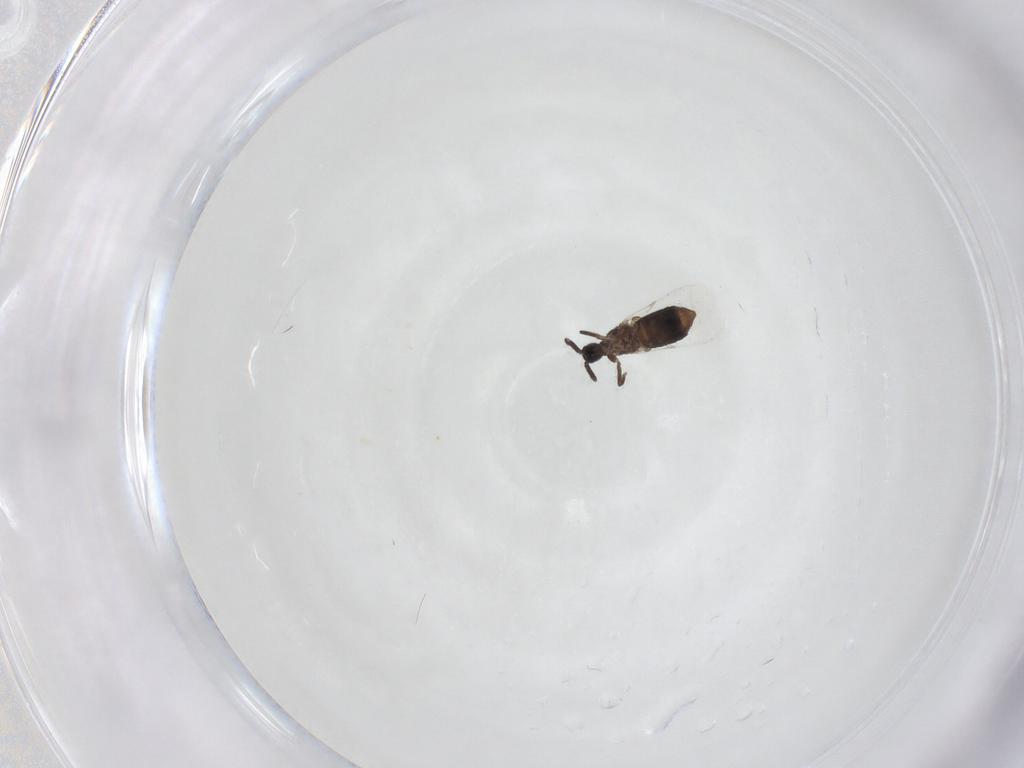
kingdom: Animalia
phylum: Arthropoda
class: Insecta
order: Diptera
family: Scatopsidae
